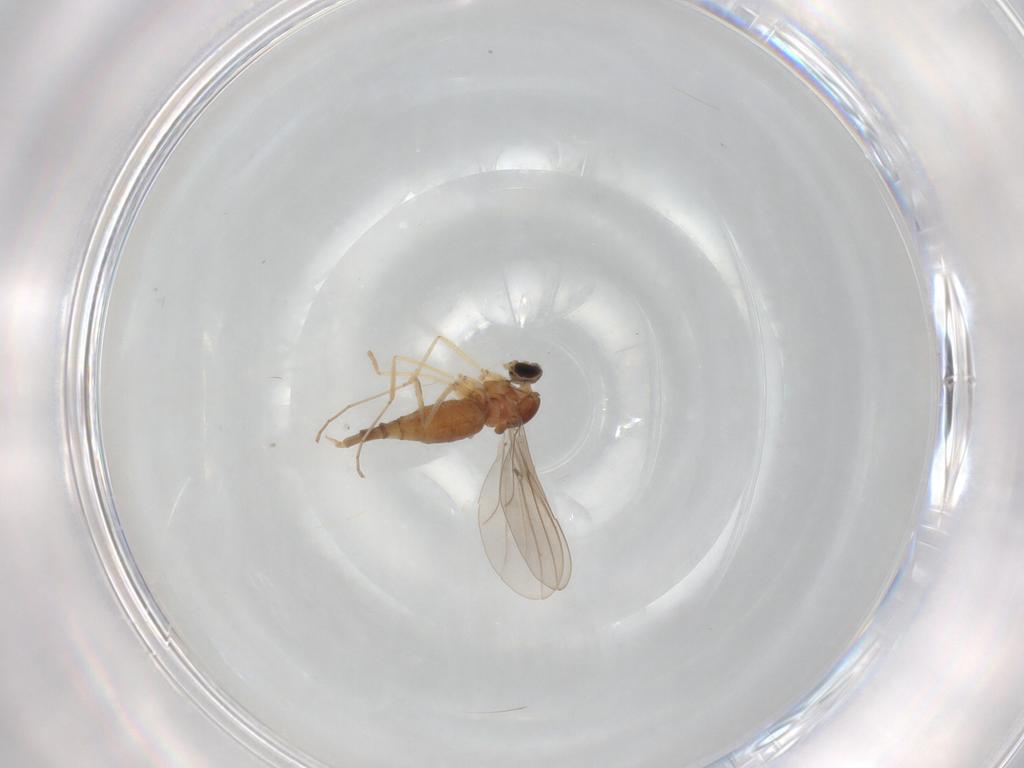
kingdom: Animalia
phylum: Arthropoda
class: Insecta
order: Diptera
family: Cecidomyiidae
